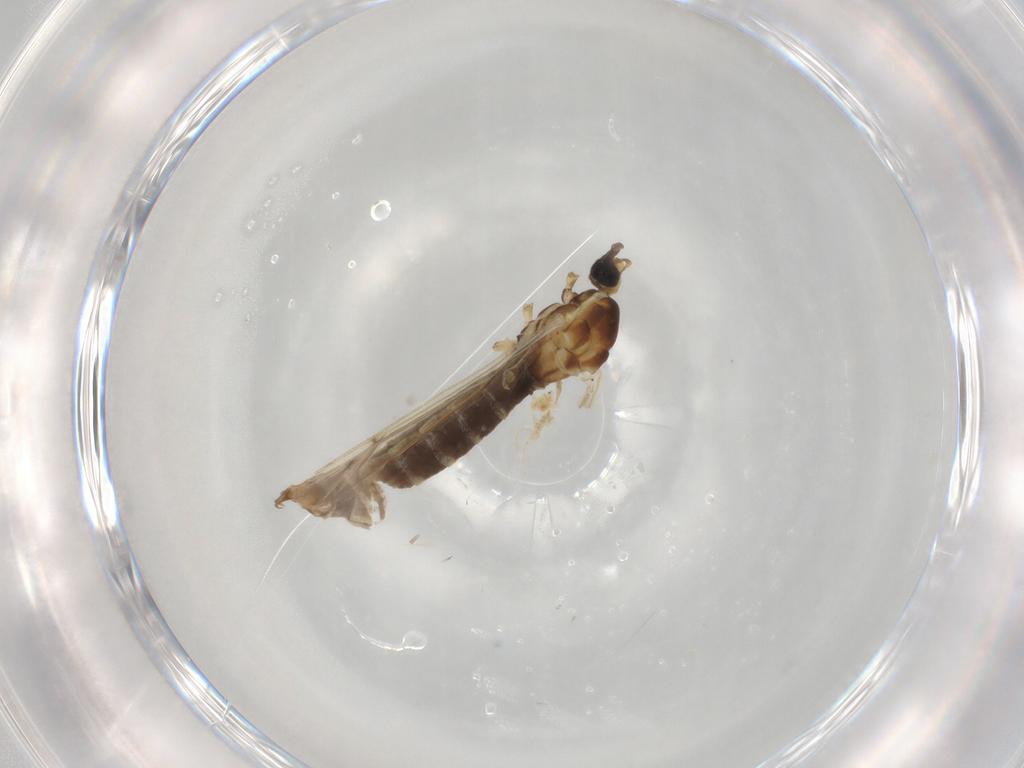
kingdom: Animalia
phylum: Arthropoda
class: Insecta
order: Diptera
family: Limoniidae
